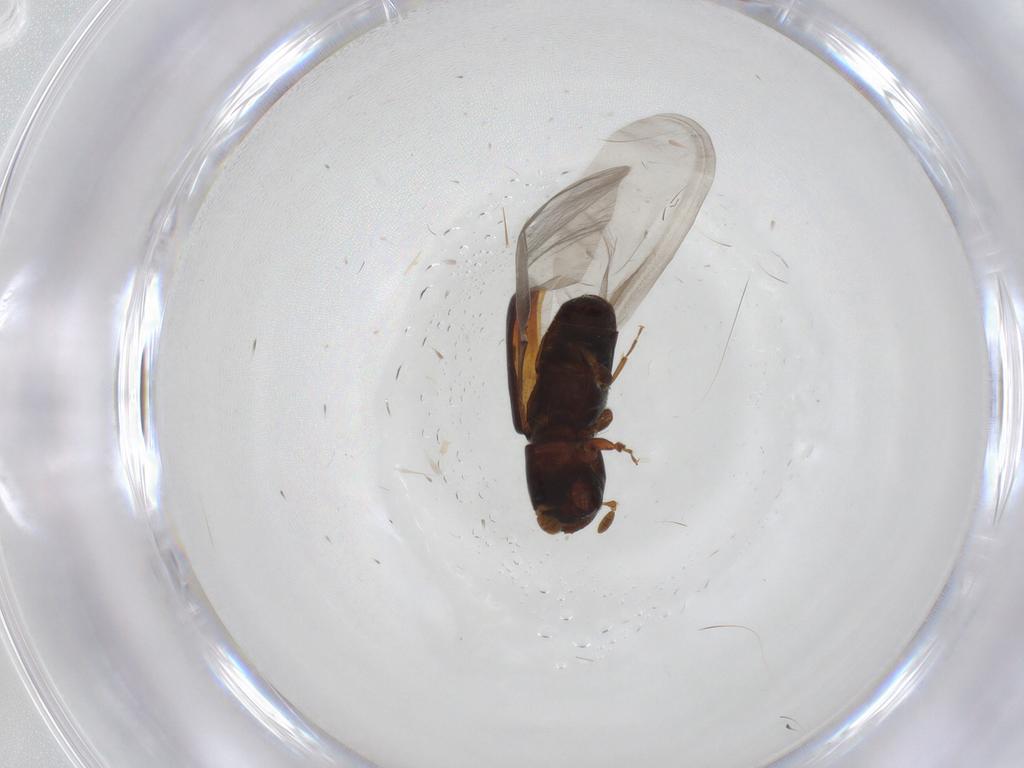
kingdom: Animalia
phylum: Arthropoda
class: Insecta
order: Coleoptera
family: Curculionidae
